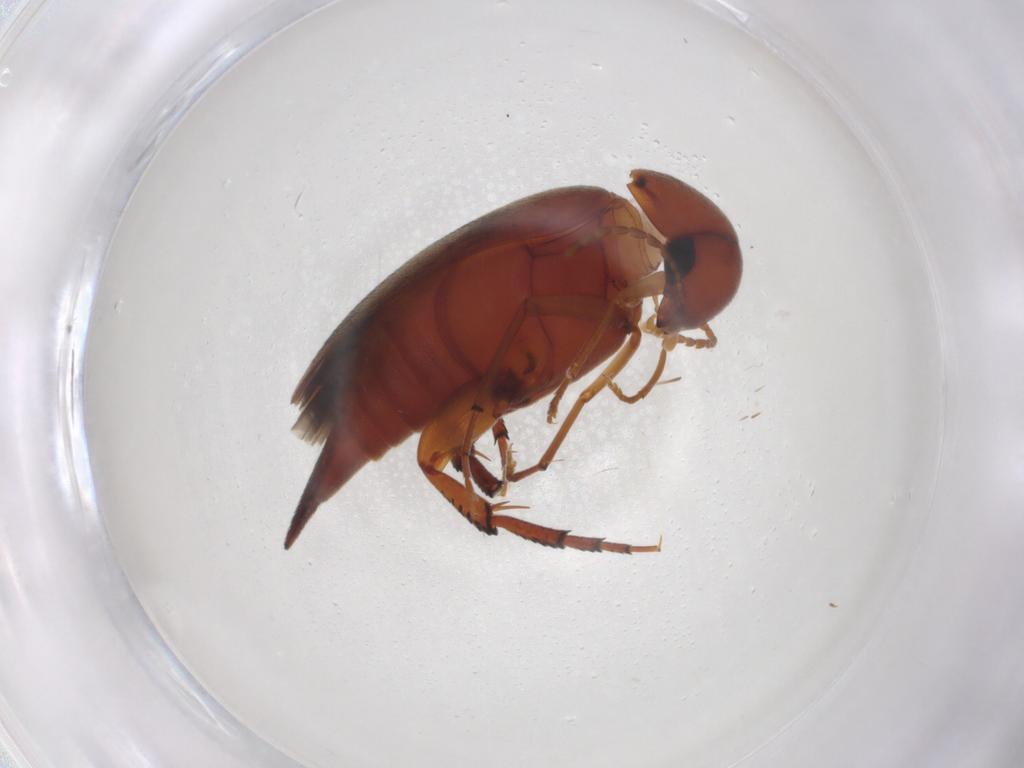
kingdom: Animalia
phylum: Arthropoda
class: Insecta
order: Coleoptera
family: Mordellidae
